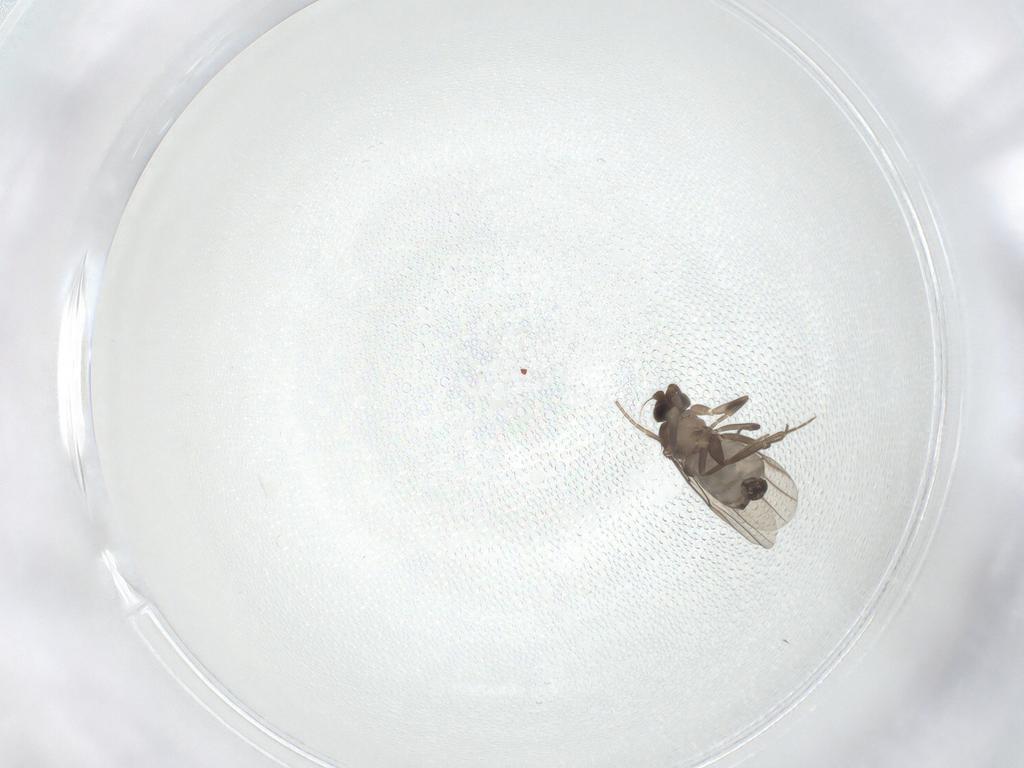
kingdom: Animalia
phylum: Arthropoda
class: Insecta
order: Diptera
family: Phoridae
